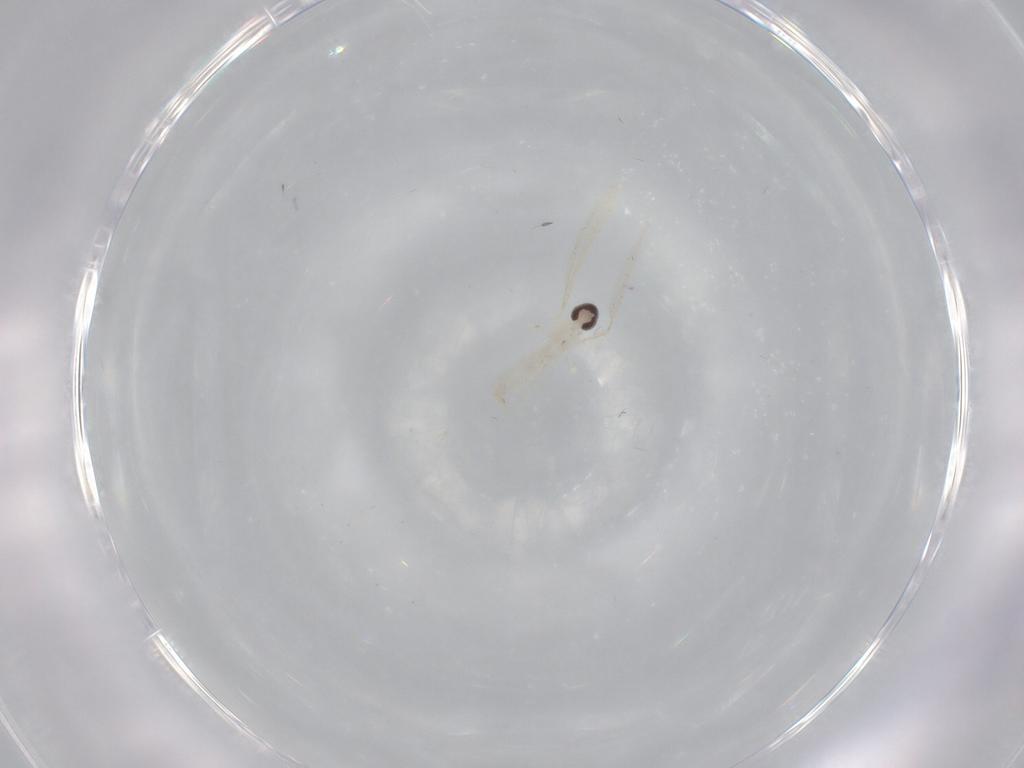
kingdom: Animalia
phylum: Arthropoda
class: Insecta
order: Diptera
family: Cecidomyiidae
